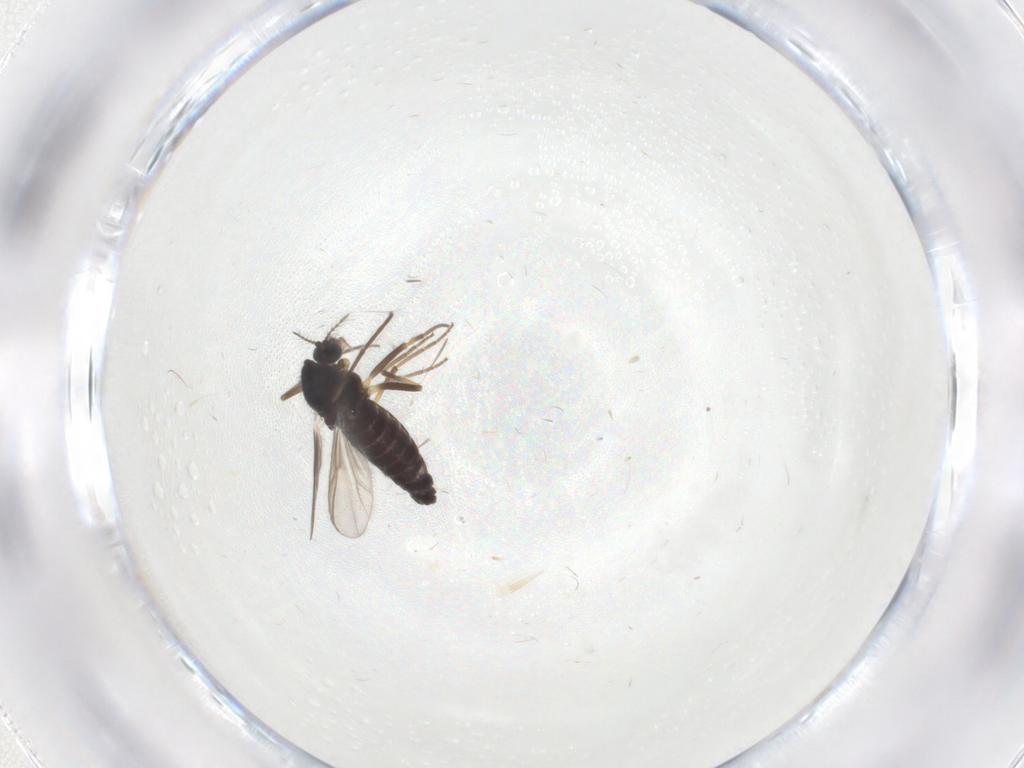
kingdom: Animalia
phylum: Arthropoda
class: Insecta
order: Diptera
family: Chironomidae
